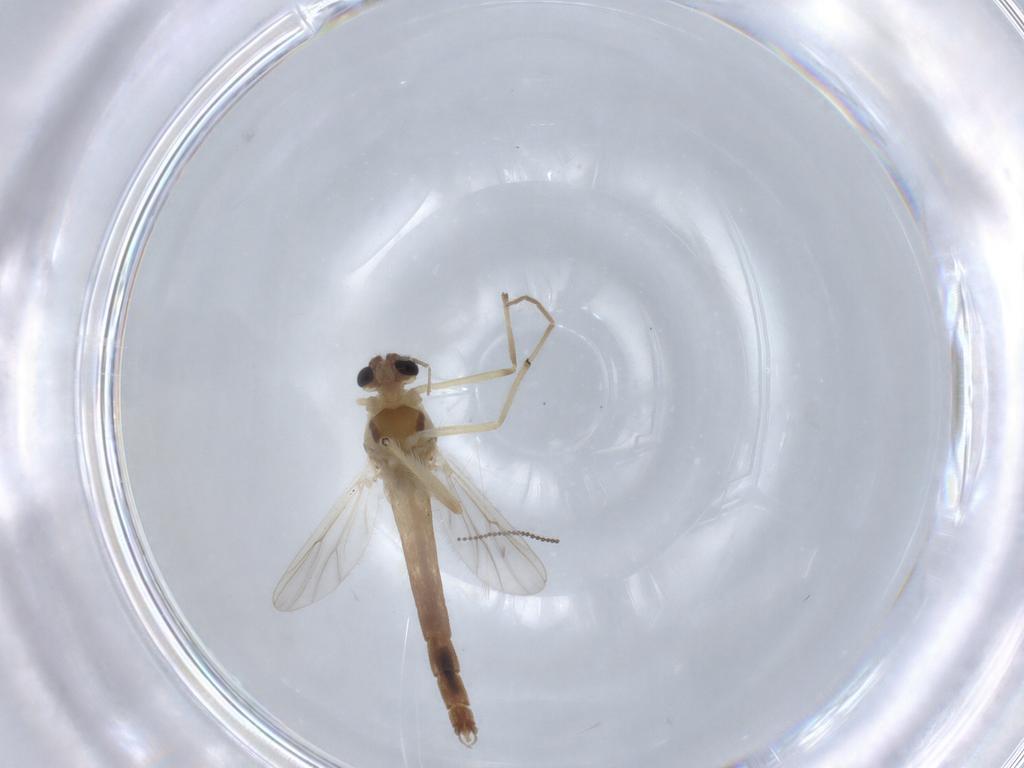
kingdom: Animalia
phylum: Arthropoda
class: Insecta
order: Diptera
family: Chironomidae
